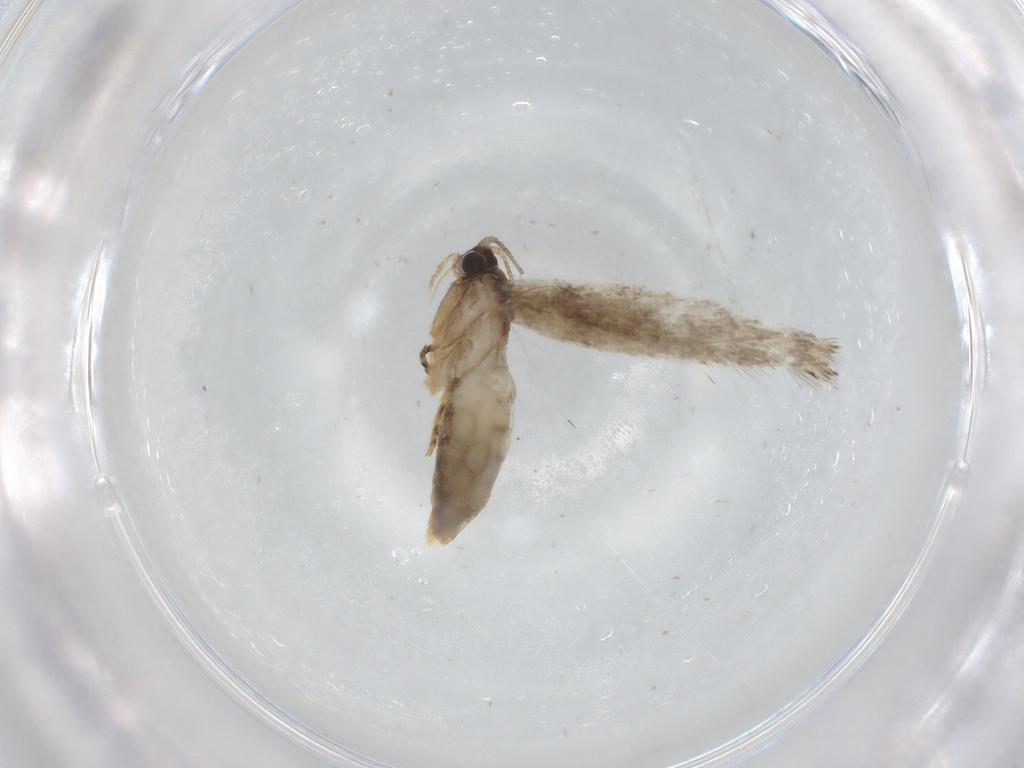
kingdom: Animalia
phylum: Arthropoda
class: Insecta
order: Lepidoptera
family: Tineidae
